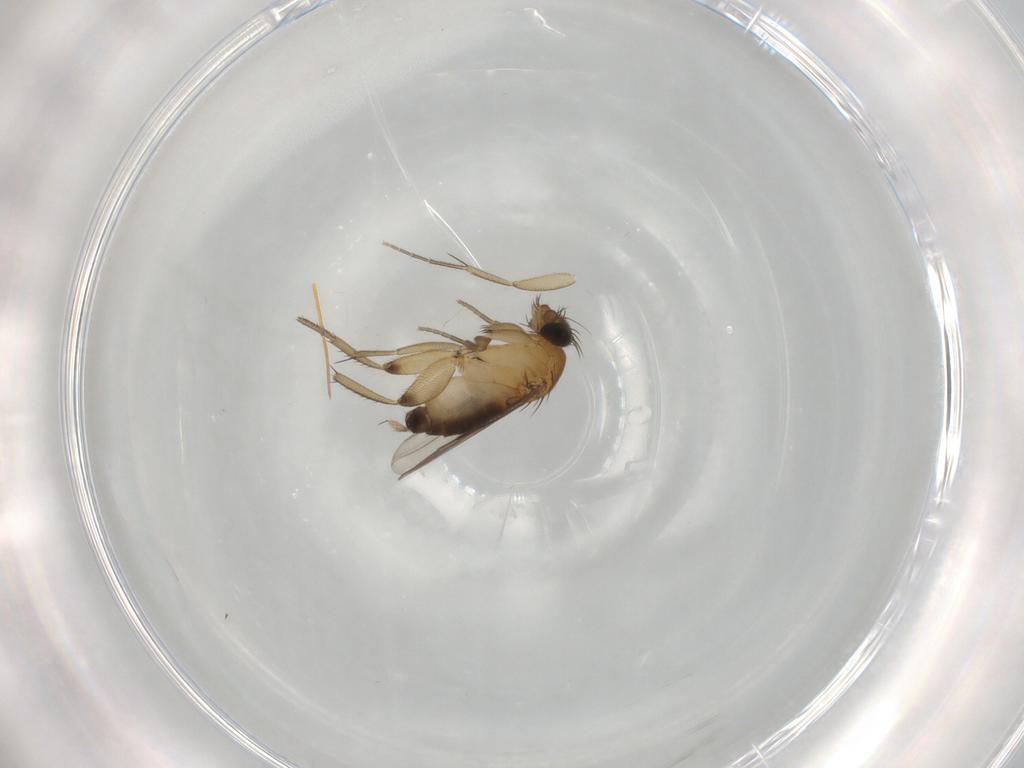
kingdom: Animalia
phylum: Arthropoda
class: Insecta
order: Diptera
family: Phoridae
